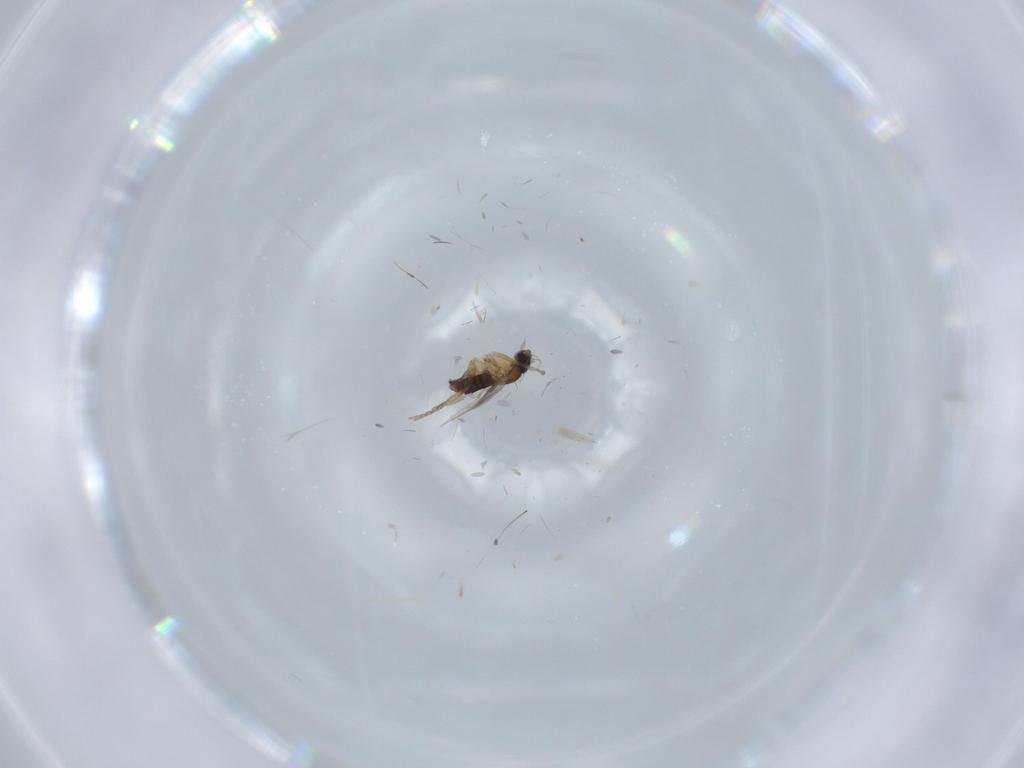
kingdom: Animalia
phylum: Arthropoda
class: Insecta
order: Diptera
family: Phoridae
